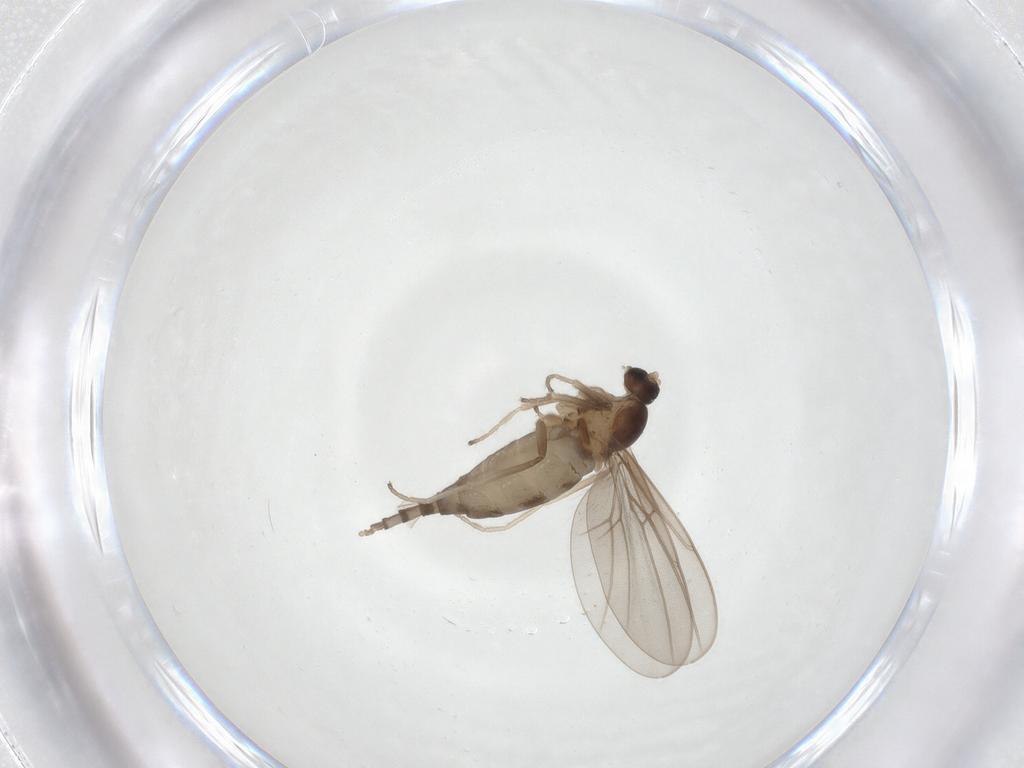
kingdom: Animalia
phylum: Arthropoda
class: Insecta
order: Diptera
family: Cecidomyiidae
